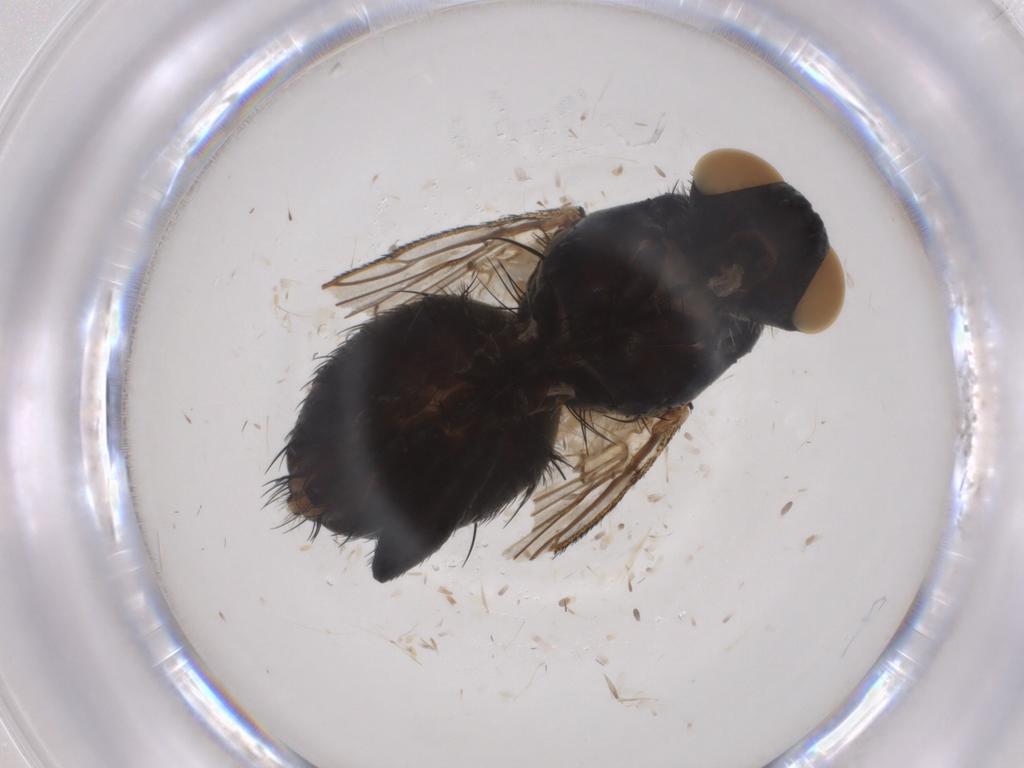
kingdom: Animalia
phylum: Arthropoda
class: Insecta
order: Diptera
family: Sarcophagidae
